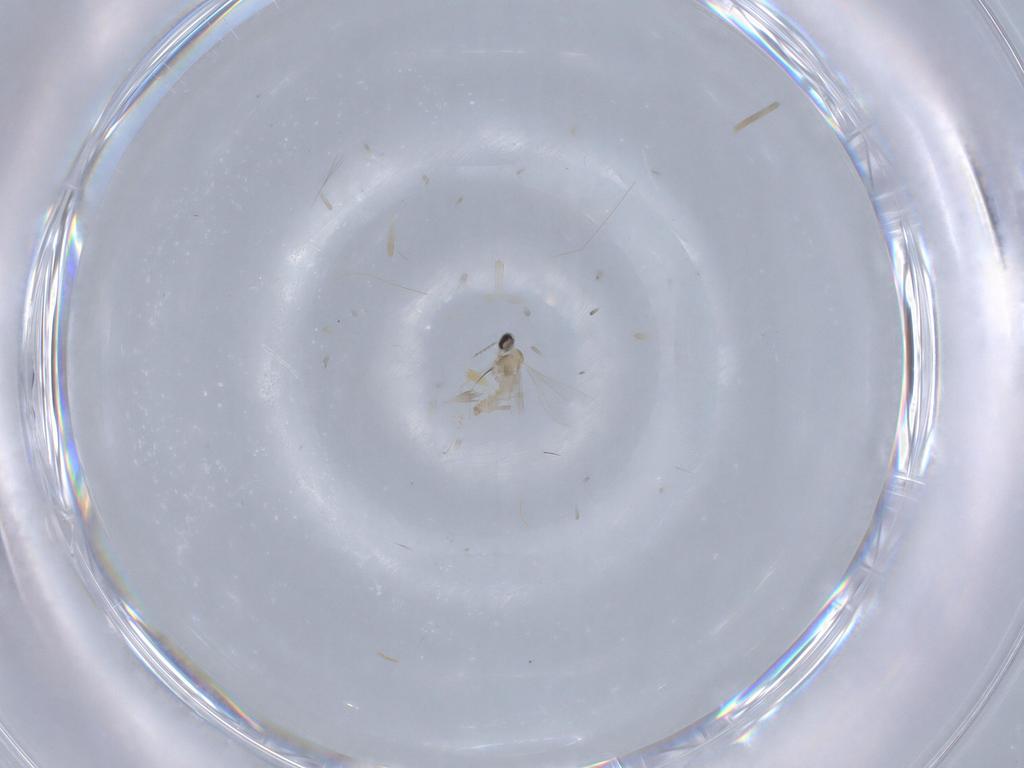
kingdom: Animalia
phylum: Arthropoda
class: Insecta
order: Diptera
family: Cecidomyiidae
